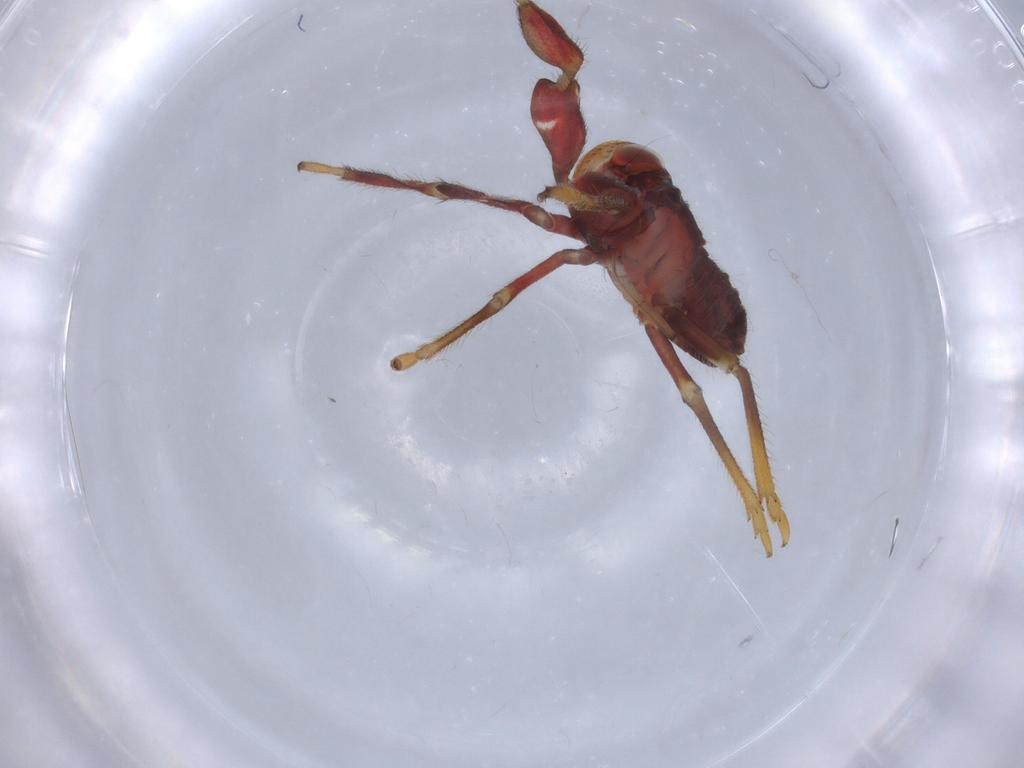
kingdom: Animalia
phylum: Arthropoda
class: Insecta
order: Hemiptera
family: Caliscelidae
